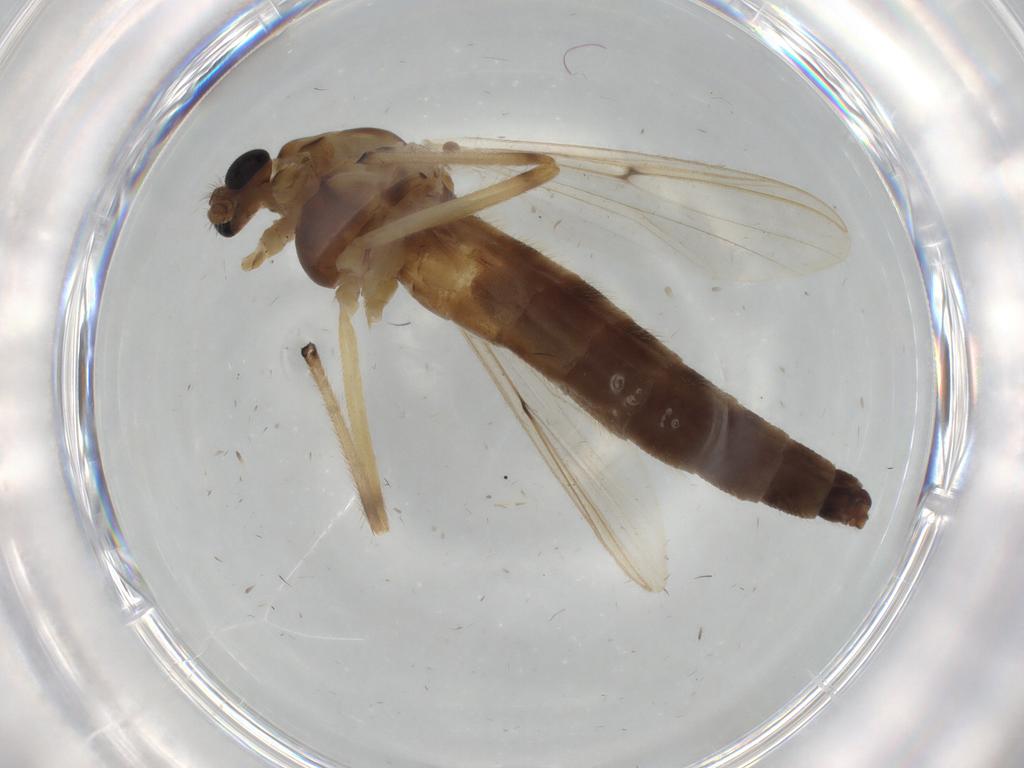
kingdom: Animalia
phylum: Arthropoda
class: Insecta
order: Diptera
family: Chironomidae
